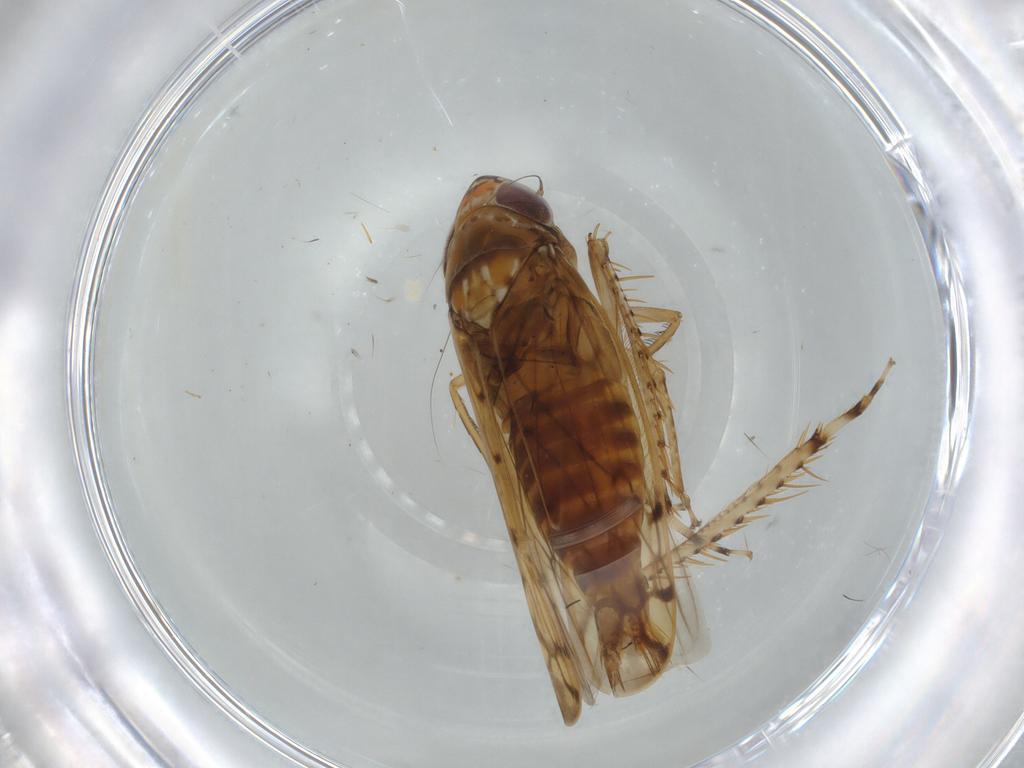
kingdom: Animalia
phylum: Arthropoda
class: Insecta
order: Hemiptera
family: Cicadellidae
